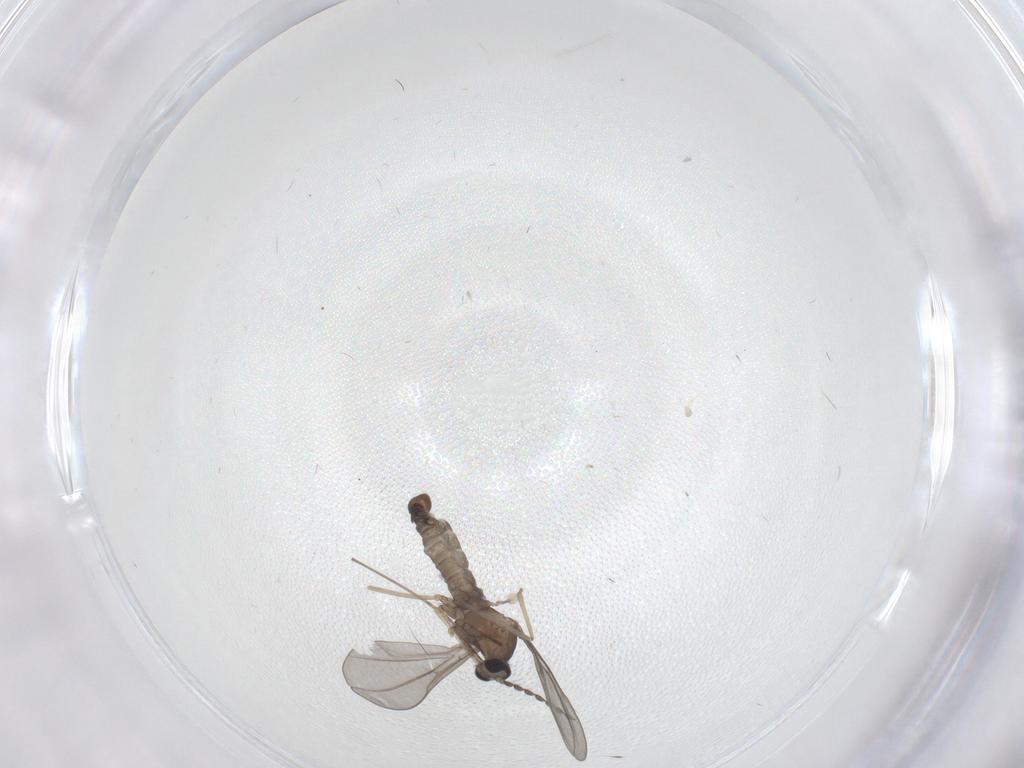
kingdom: Animalia
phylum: Arthropoda
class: Insecta
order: Diptera
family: Cecidomyiidae
